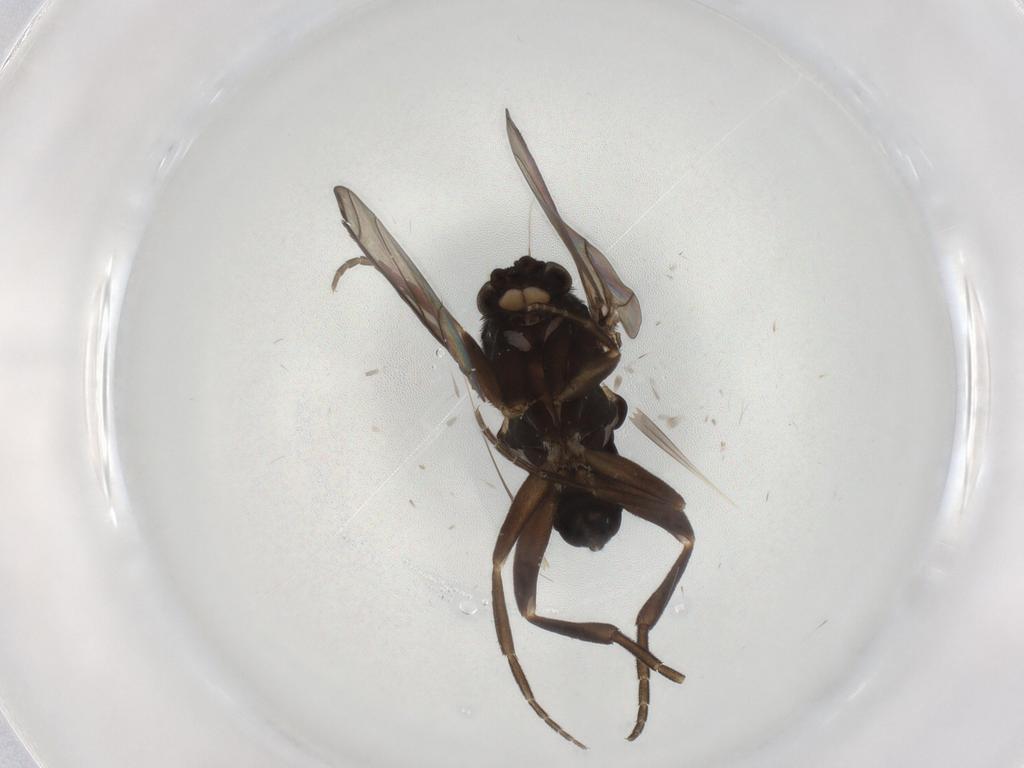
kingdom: Animalia
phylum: Arthropoda
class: Insecta
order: Diptera
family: Phoridae
